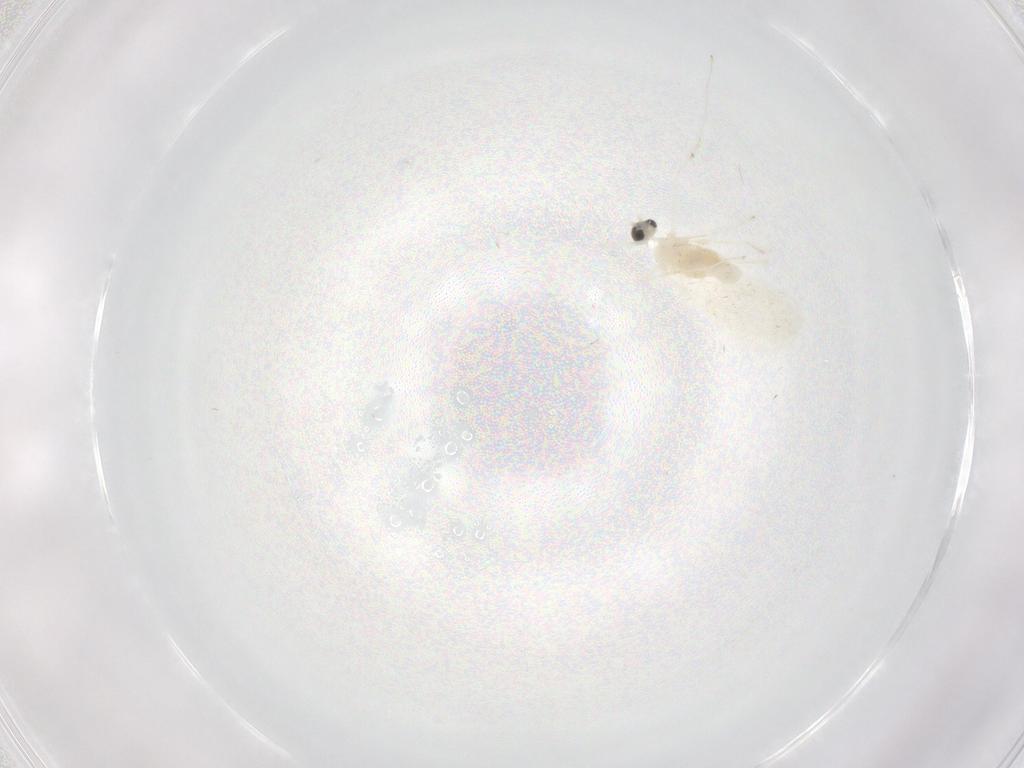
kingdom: Animalia
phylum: Arthropoda
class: Insecta
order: Diptera
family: Cecidomyiidae
